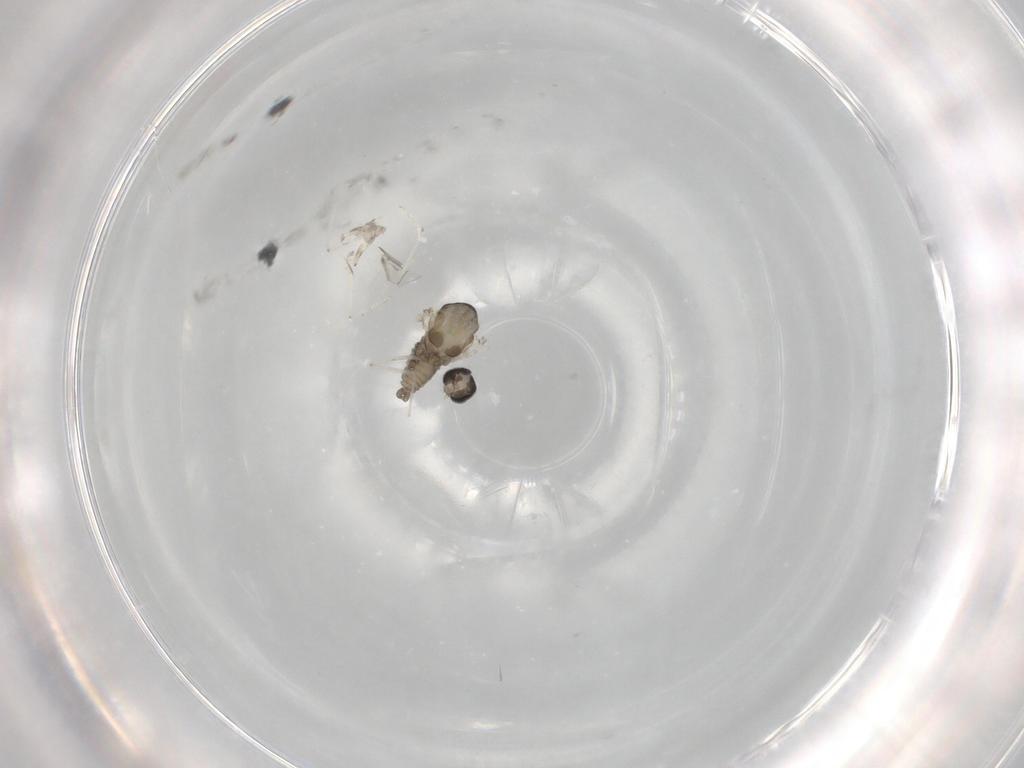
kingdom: Animalia
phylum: Arthropoda
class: Insecta
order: Diptera
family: Cecidomyiidae
